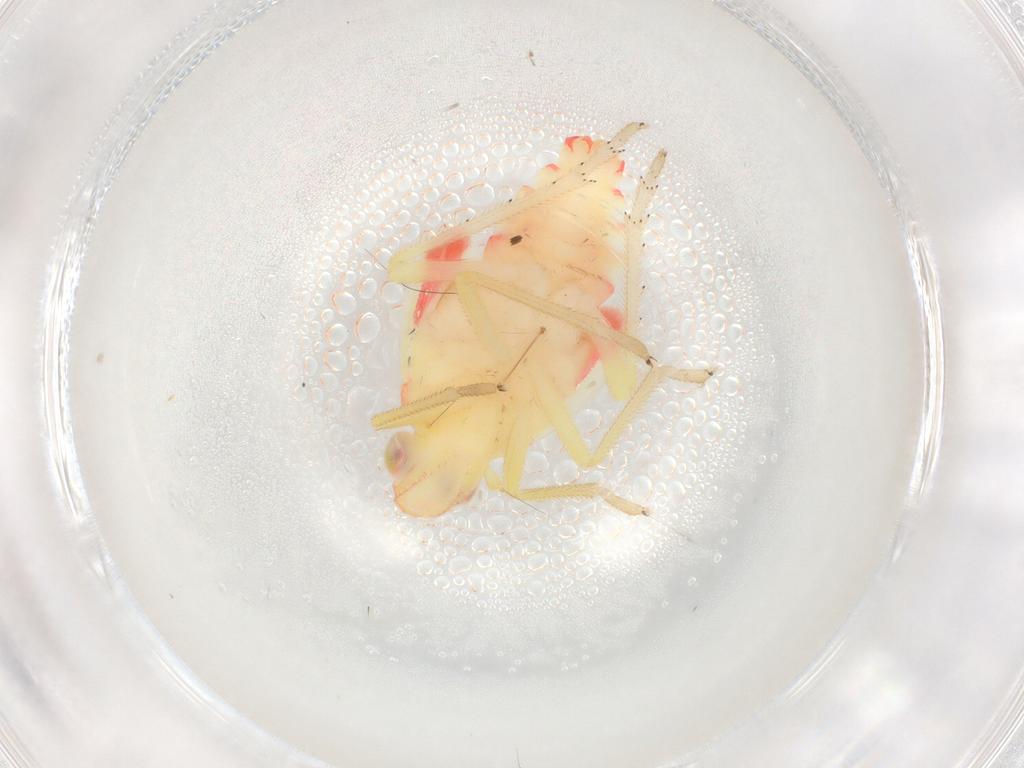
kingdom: Animalia
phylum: Arthropoda
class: Insecta
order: Hemiptera
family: Tropiduchidae
